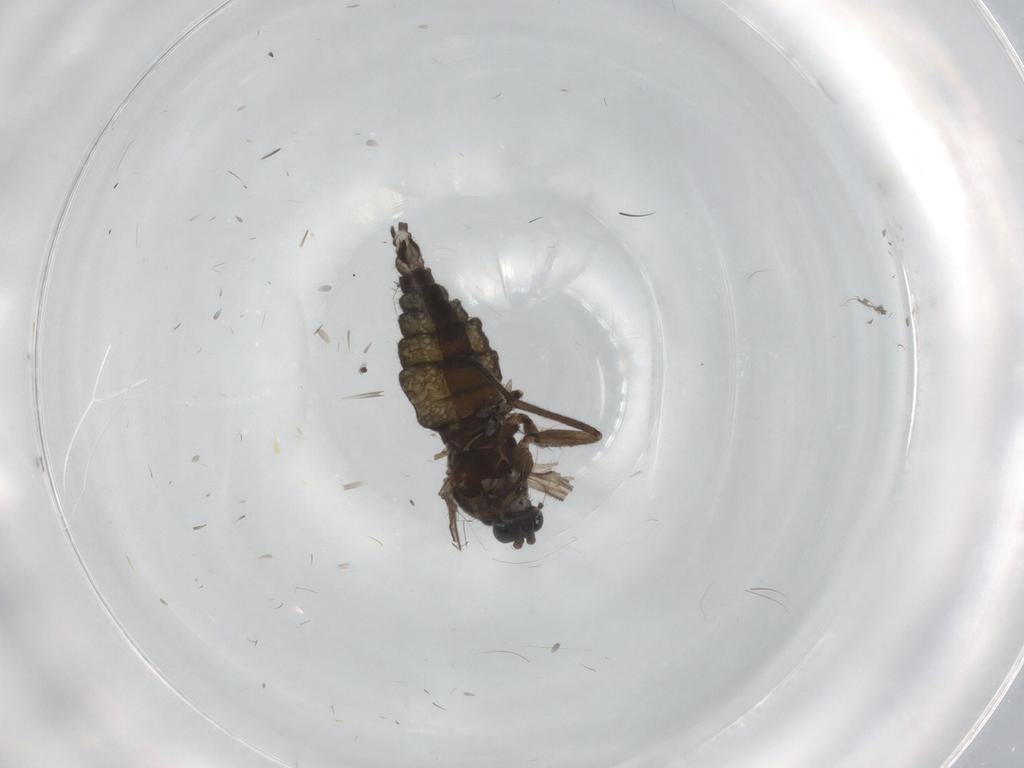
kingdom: Animalia
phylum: Arthropoda
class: Insecta
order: Diptera
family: Sciaridae
